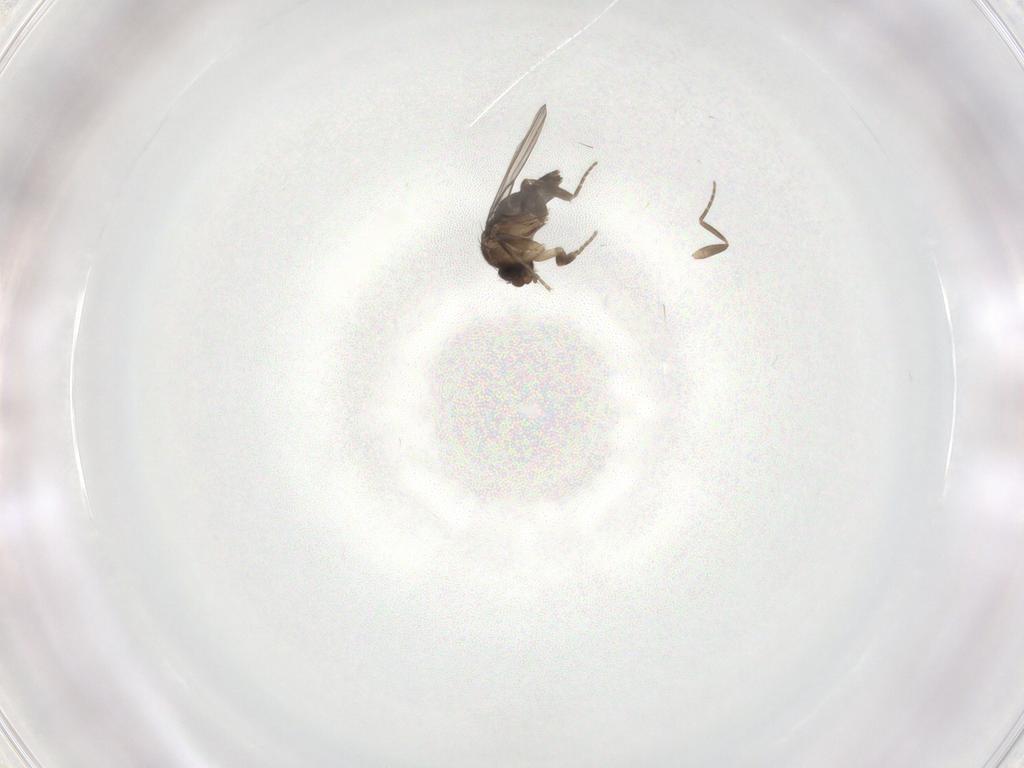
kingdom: Animalia
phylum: Arthropoda
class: Insecta
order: Diptera
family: Phoridae
